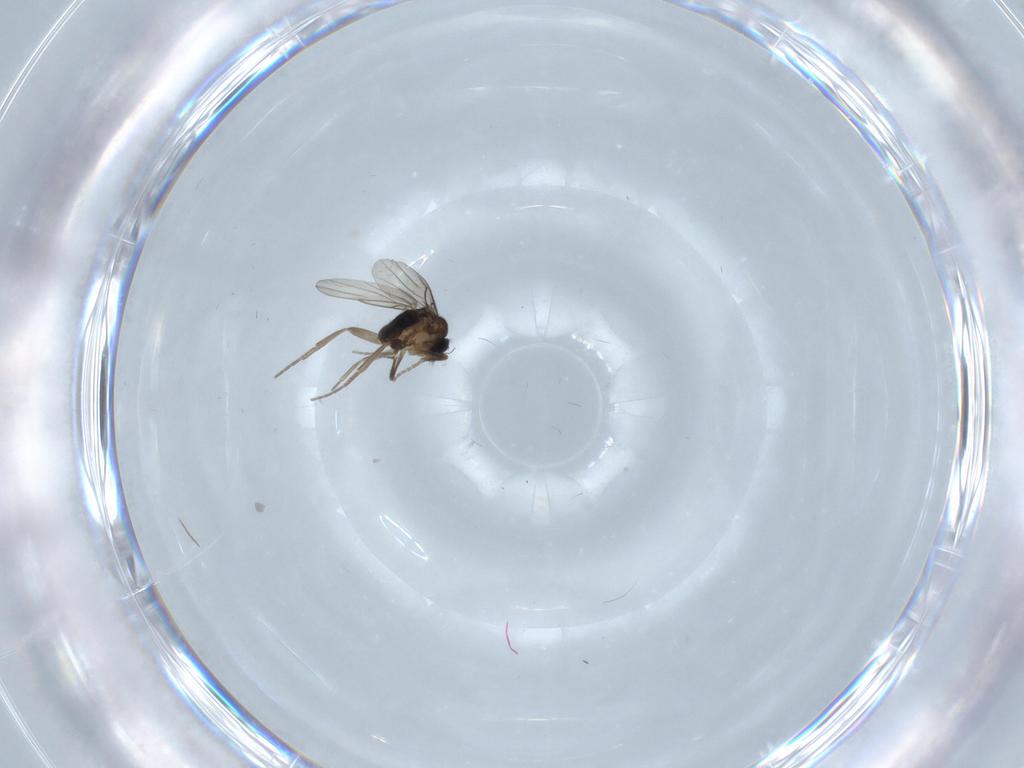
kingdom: Animalia
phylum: Arthropoda
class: Insecta
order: Diptera
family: Phoridae
